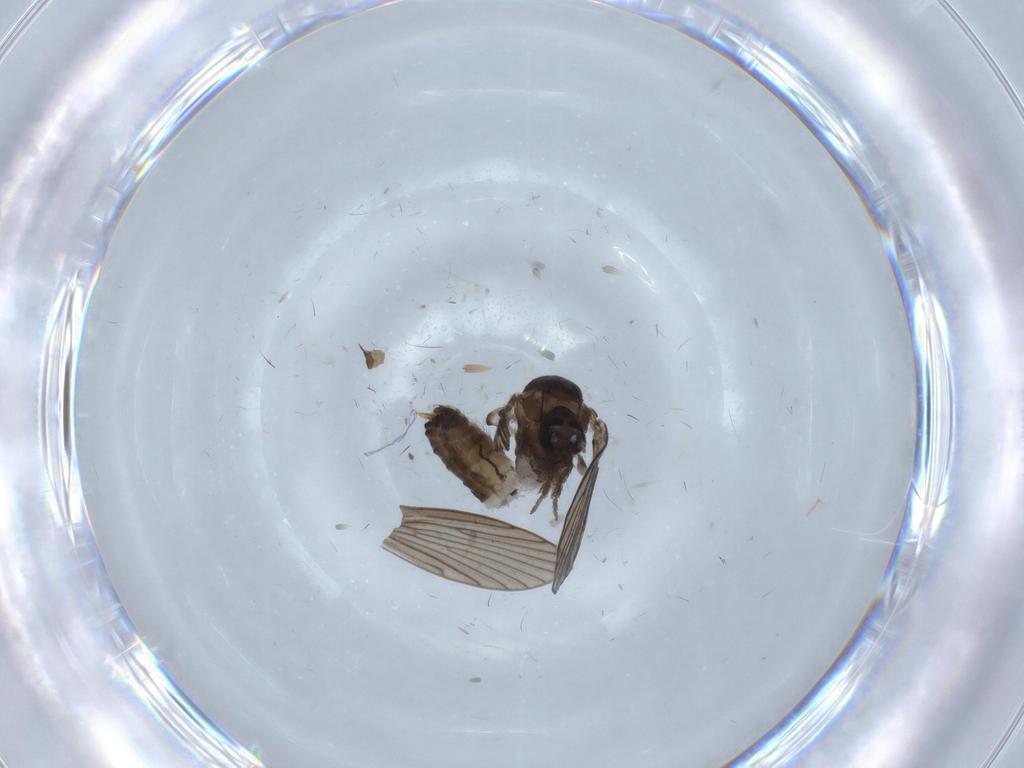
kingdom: Animalia
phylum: Arthropoda
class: Insecta
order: Diptera
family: Psychodidae
